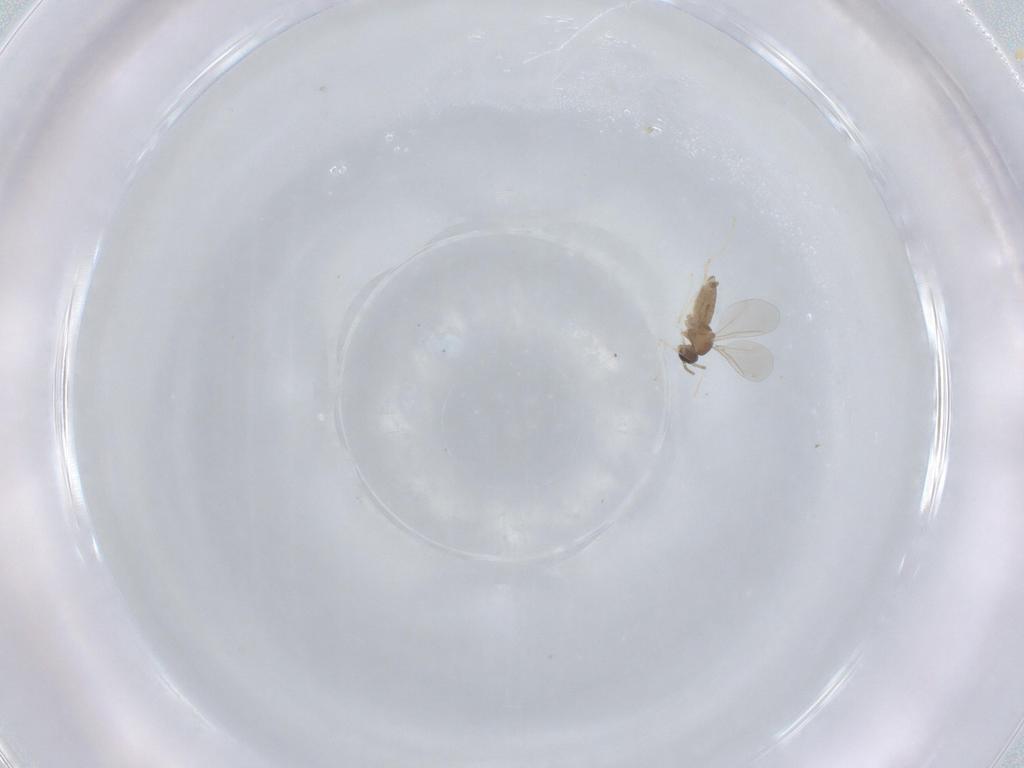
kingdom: Animalia
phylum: Arthropoda
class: Insecta
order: Diptera
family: Cecidomyiidae
